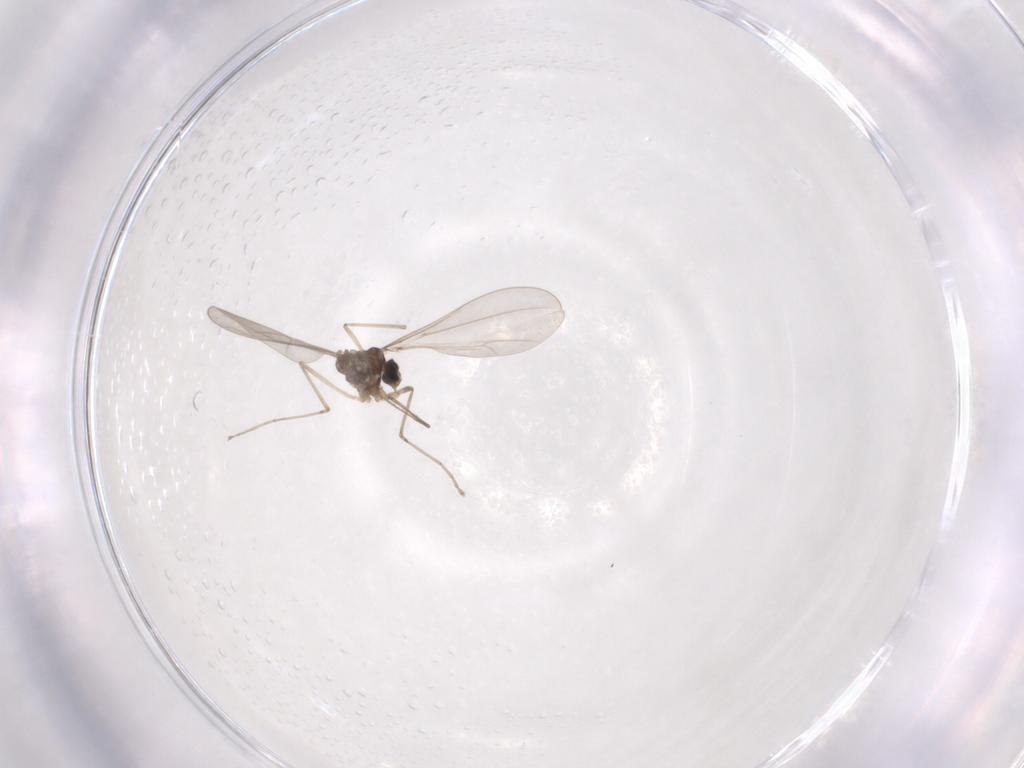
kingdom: Animalia
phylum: Arthropoda
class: Insecta
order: Diptera
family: Cecidomyiidae
